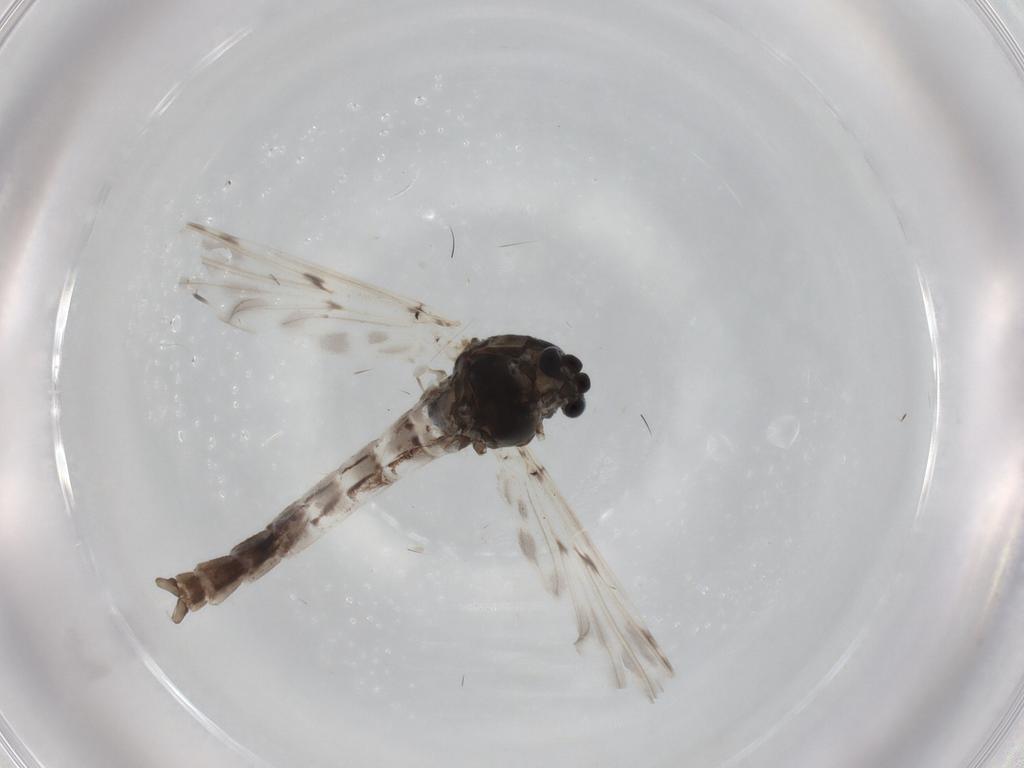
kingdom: Animalia
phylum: Arthropoda
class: Insecta
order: Diptera
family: Chironomidae
